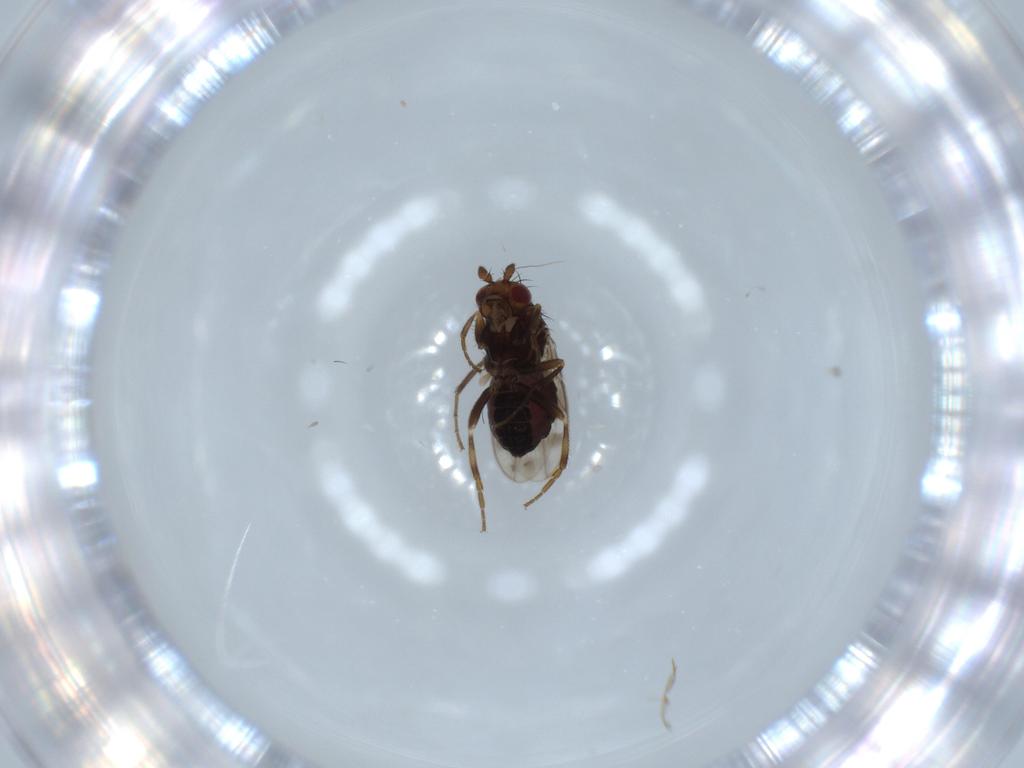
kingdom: Animalia
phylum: Arthropoda
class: Insecta
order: Diptera
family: Sphaeroceridae
